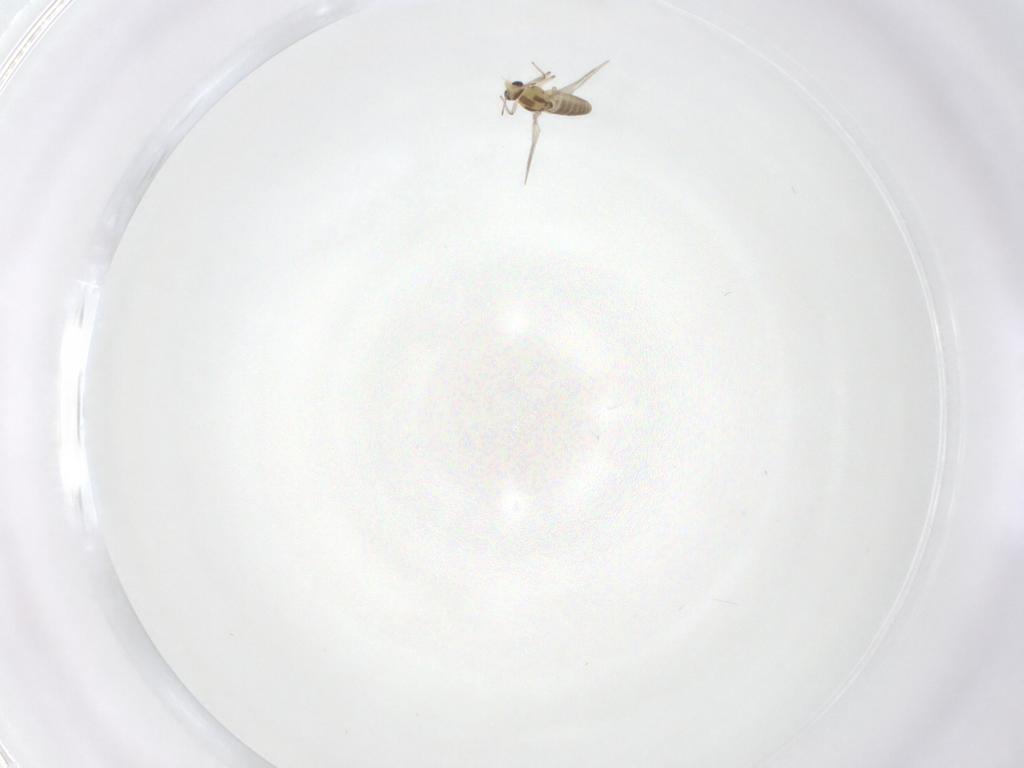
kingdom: Animalia
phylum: Arthropoda
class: Insecta
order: Diptera
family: Chironomidae
